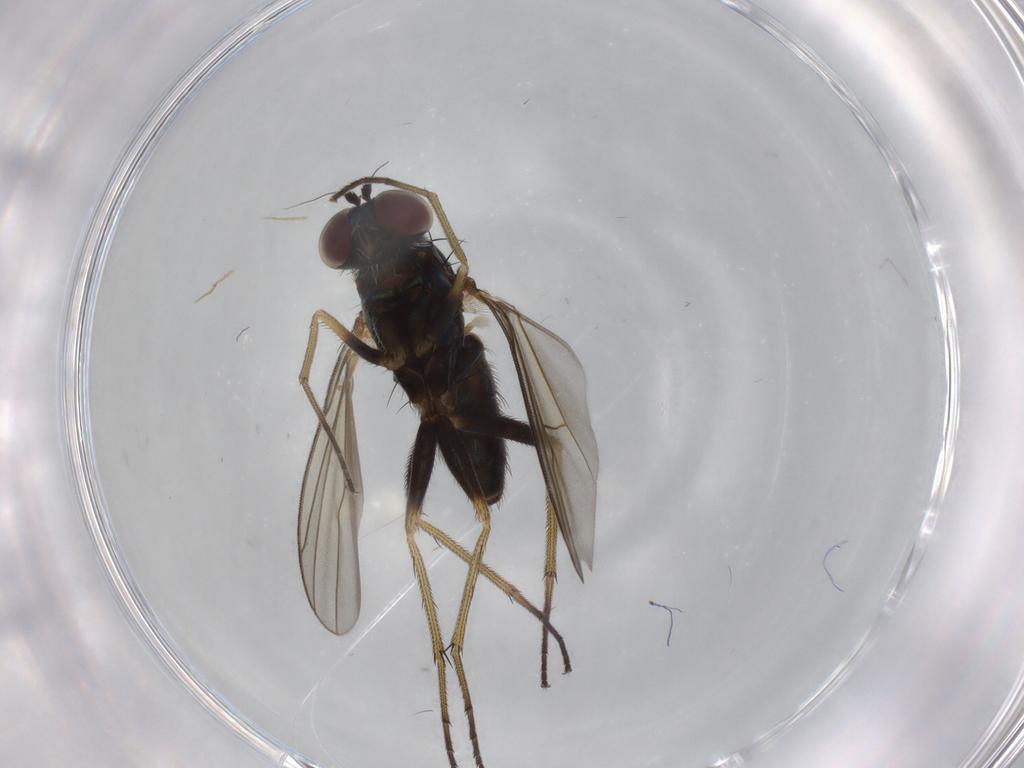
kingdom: Animalia
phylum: Arthropoda
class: Insecta
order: Diptera
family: Dolichopodidae
